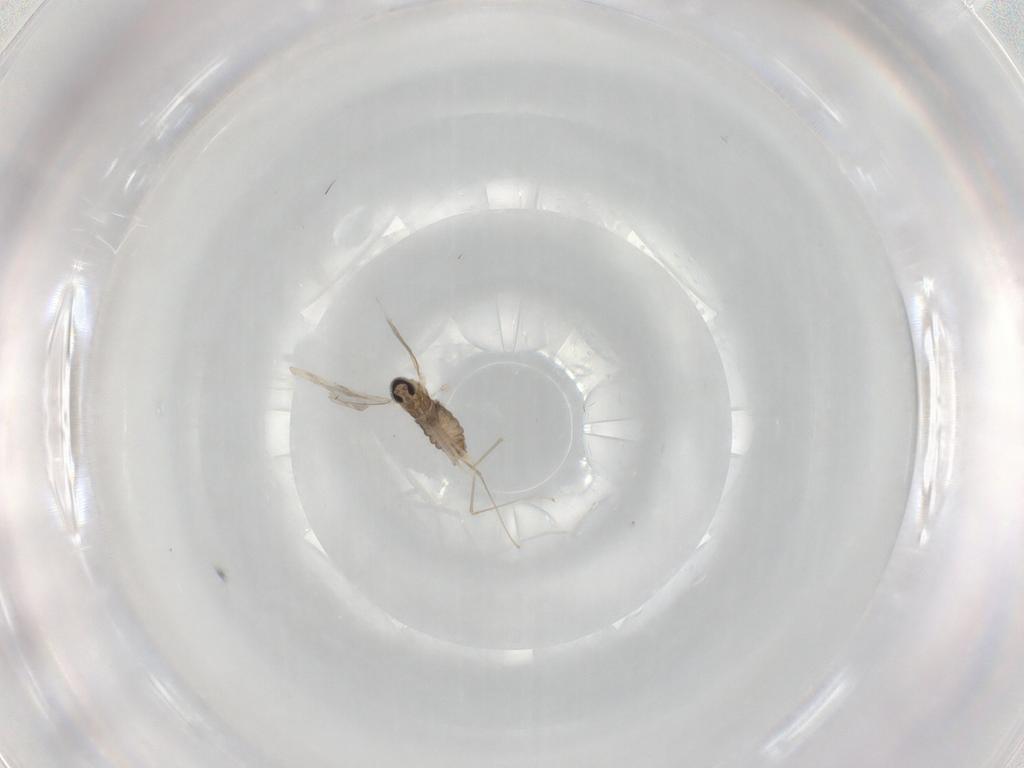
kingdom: Animalia
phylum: Arthropoda
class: Insecta
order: Diptera
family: Cecidomyiidae
